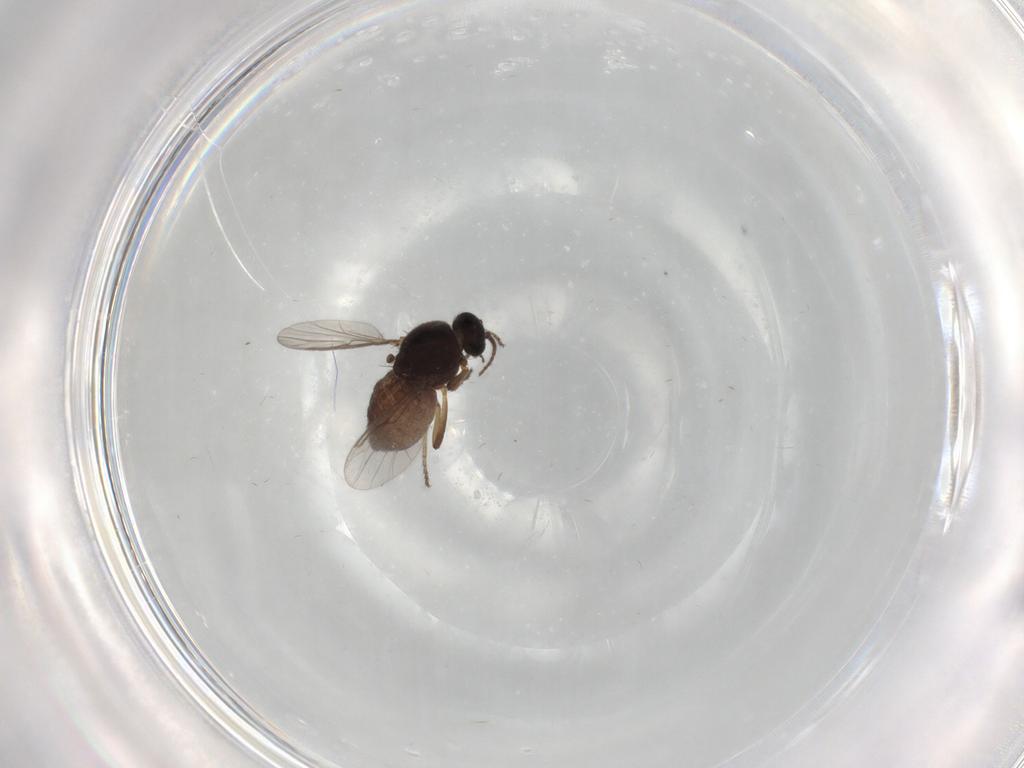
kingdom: Animalia
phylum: Arthropoda
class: Insecta
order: Diptera
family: Ceratopogonidae
